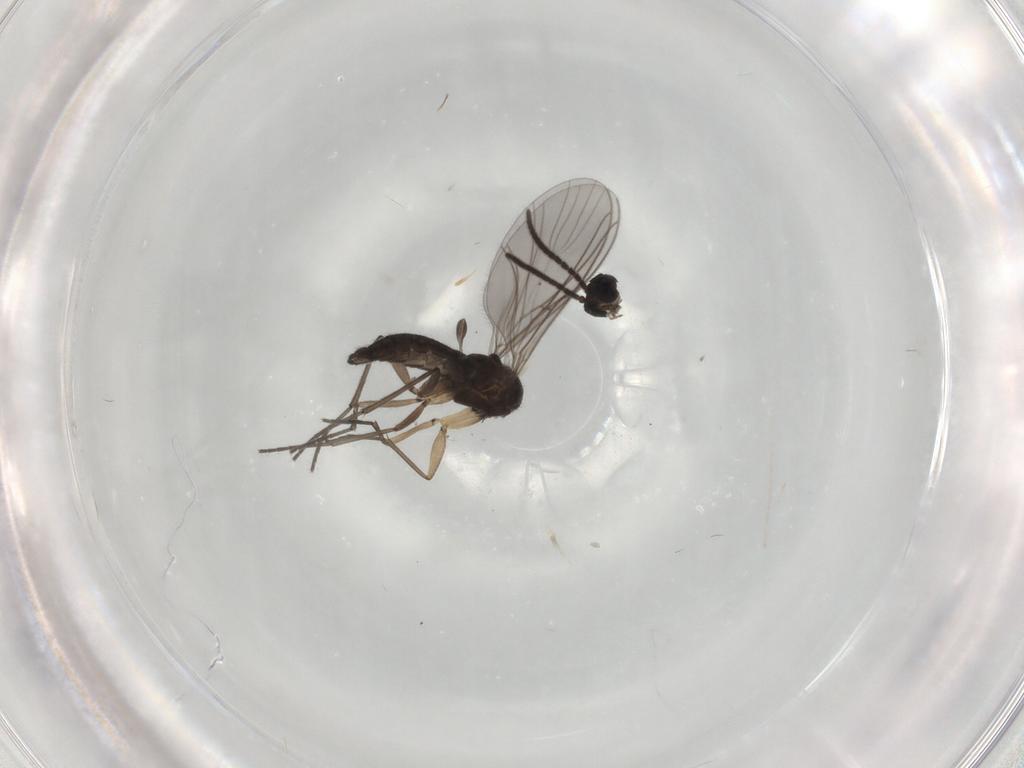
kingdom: Animalia
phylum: Arthropoda
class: Insecta
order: Diptera
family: Sciaridae
